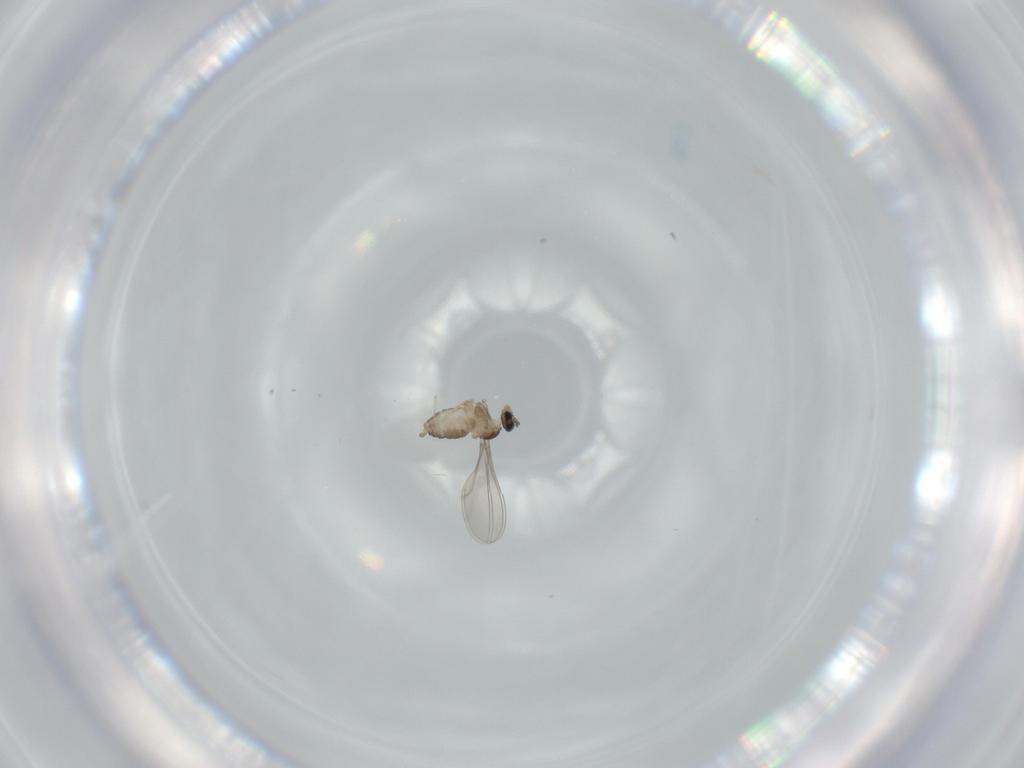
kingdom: Animalia
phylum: Arthropoda
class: Insecta
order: Diptera
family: Cecidomyiidae
